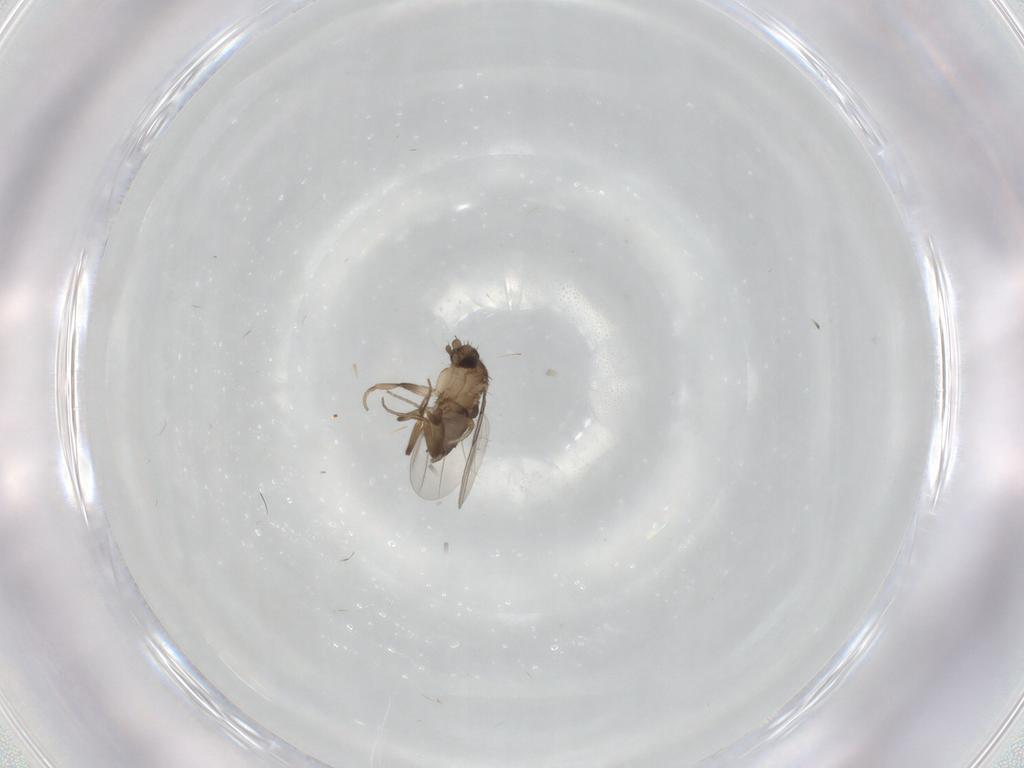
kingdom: Animalia
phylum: Arthropoda
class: Insecta
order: Diptera
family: Phoridae
